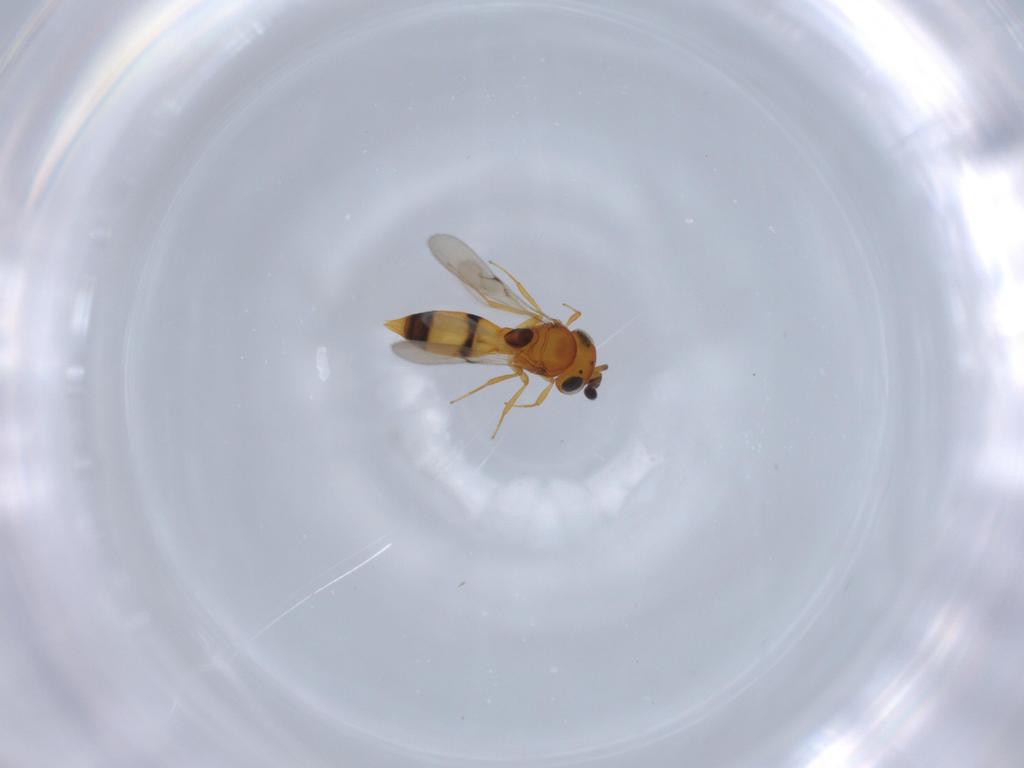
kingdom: Animalia
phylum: Arthropoda
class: Insecta
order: Hymenoptera
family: Scelionidae
